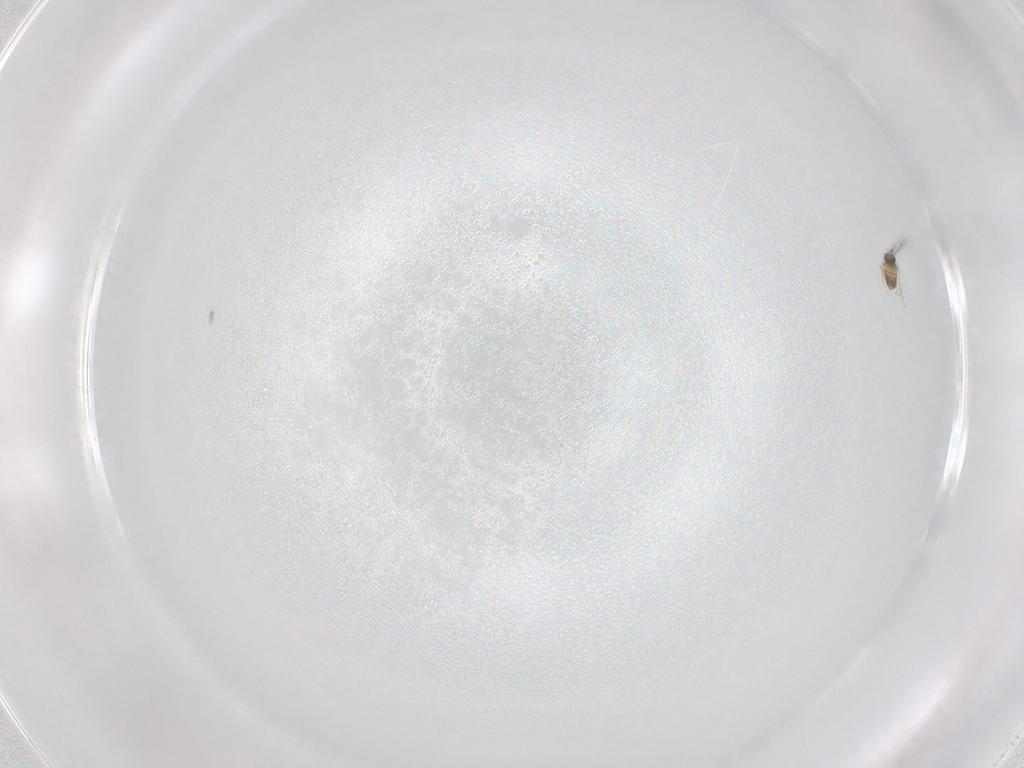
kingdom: Animalia
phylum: Arthropoda
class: Insecta
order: Hymenoptera
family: Mymaridae
